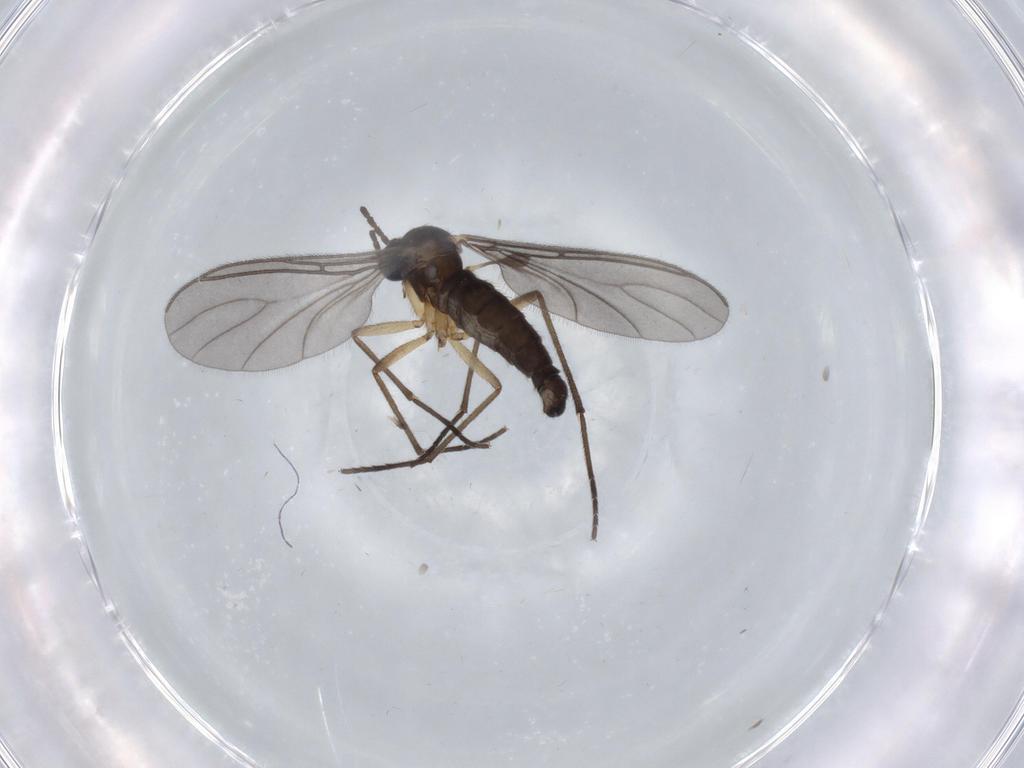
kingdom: Animalia
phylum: Arthropoda
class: Insecta
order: Diptera
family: Sciaridae
